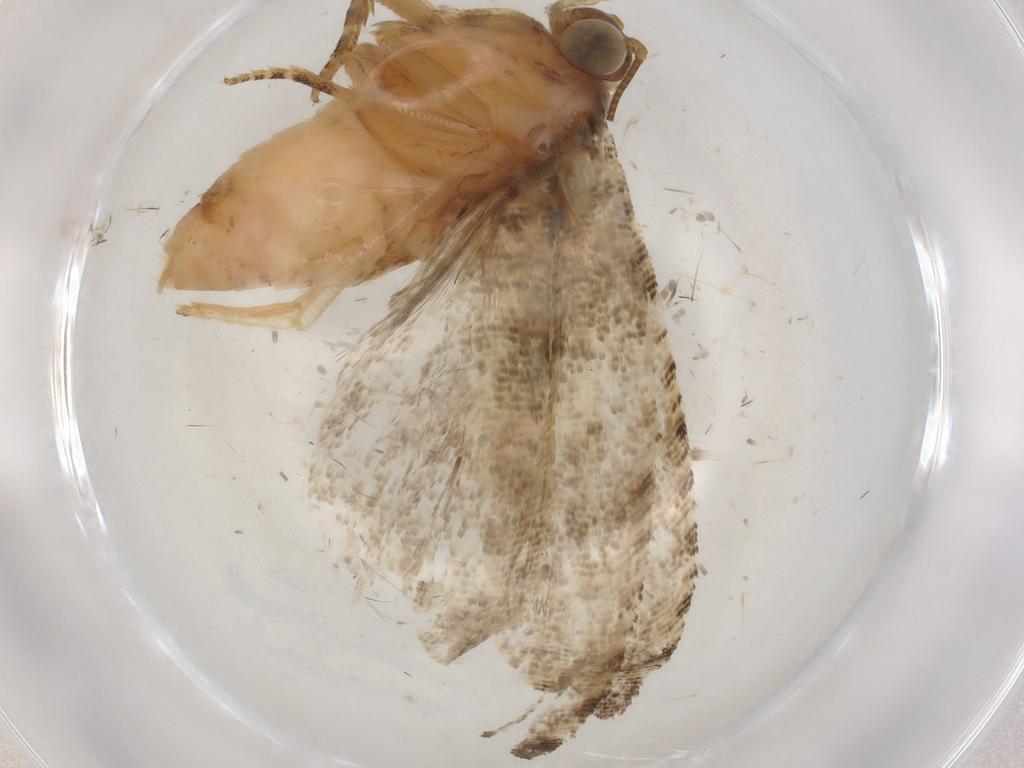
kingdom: Animalia
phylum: Arthropoda
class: Insecta
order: Lepidoptera
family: Tortricidae
